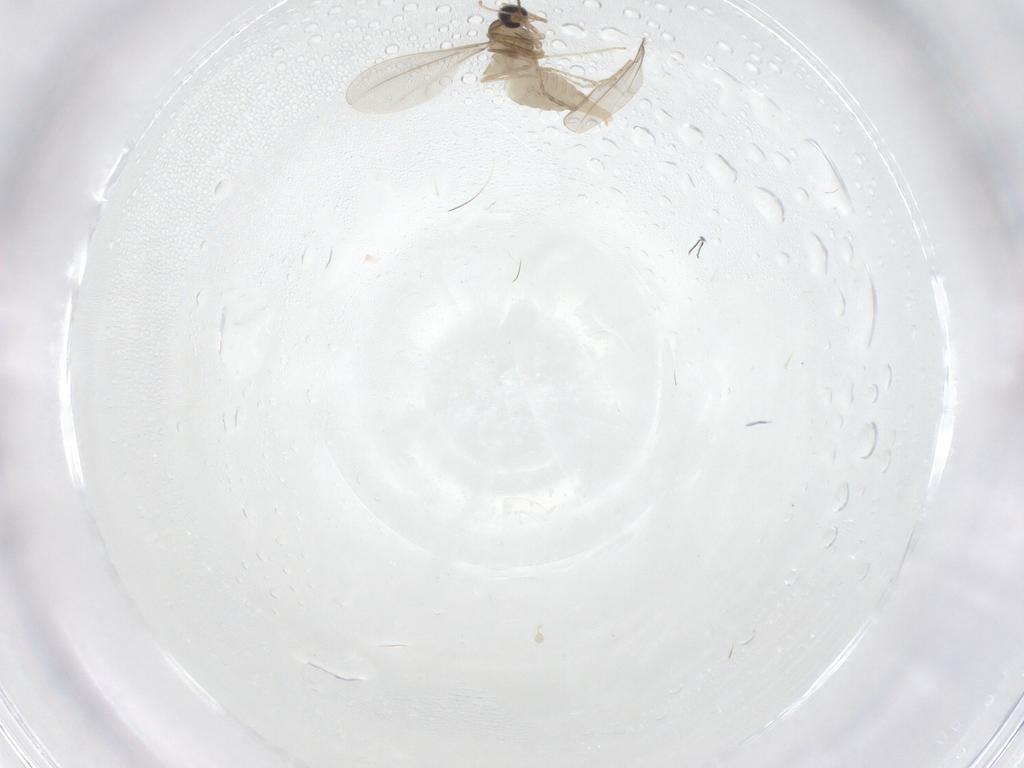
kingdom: Animalia
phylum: Arthropoda
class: Insecta
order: Diptera
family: Cecidomyiidae
